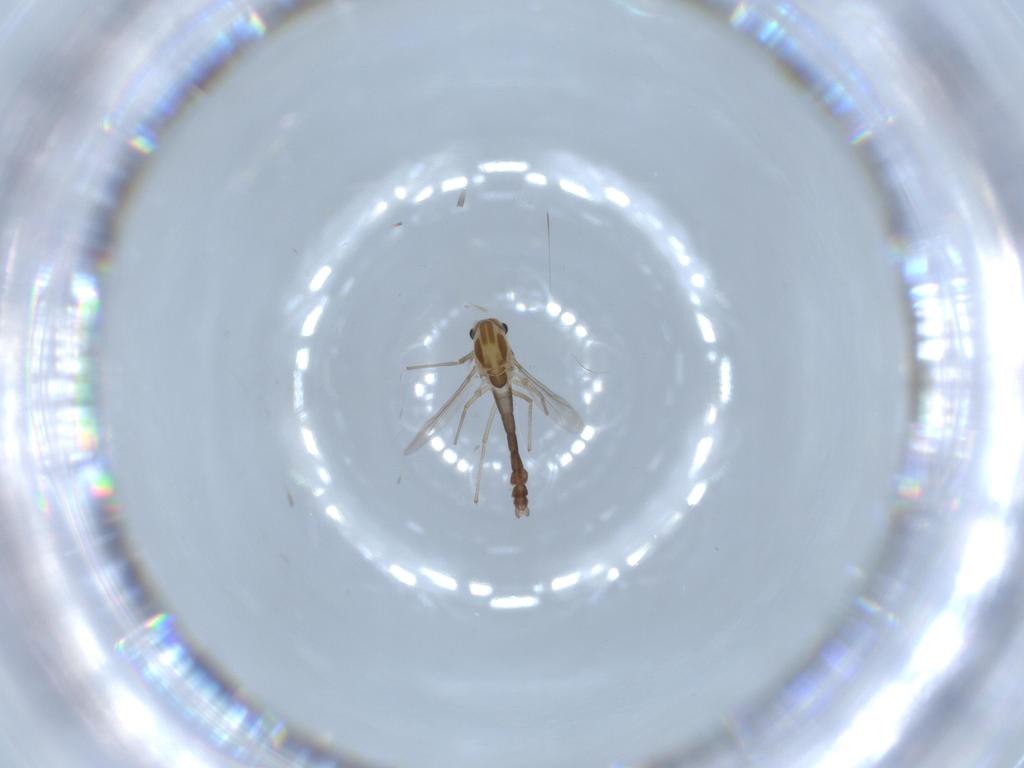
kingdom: Animalia
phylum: Arthropoda
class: Insecta
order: Diptera
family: Chironomidae
